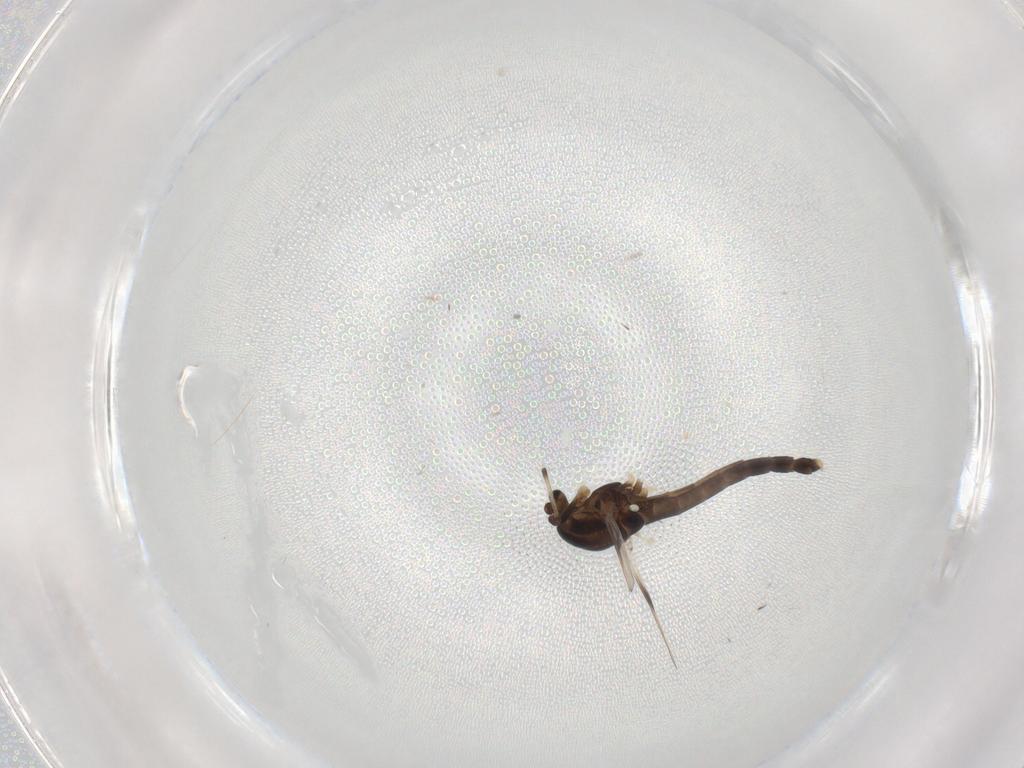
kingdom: Animalia
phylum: Arthropoda
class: Insecta
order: Diptera
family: Chironomidae
